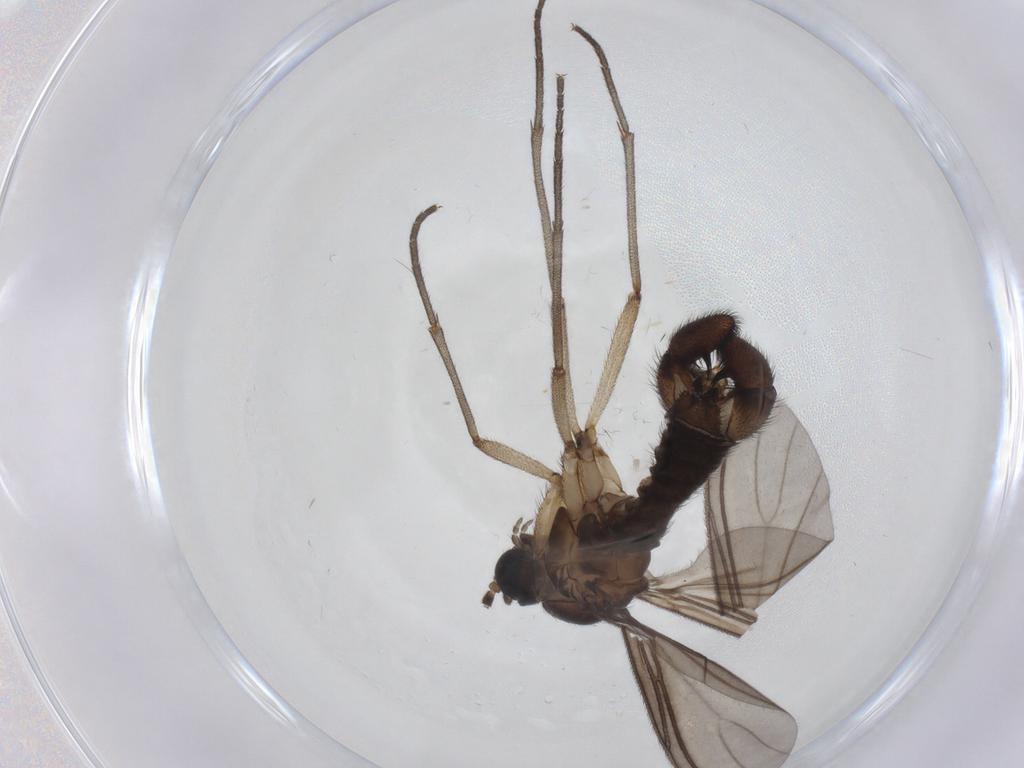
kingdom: Animalia
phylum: Arthropoda
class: Insecta
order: Diptera
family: Sciaridae
